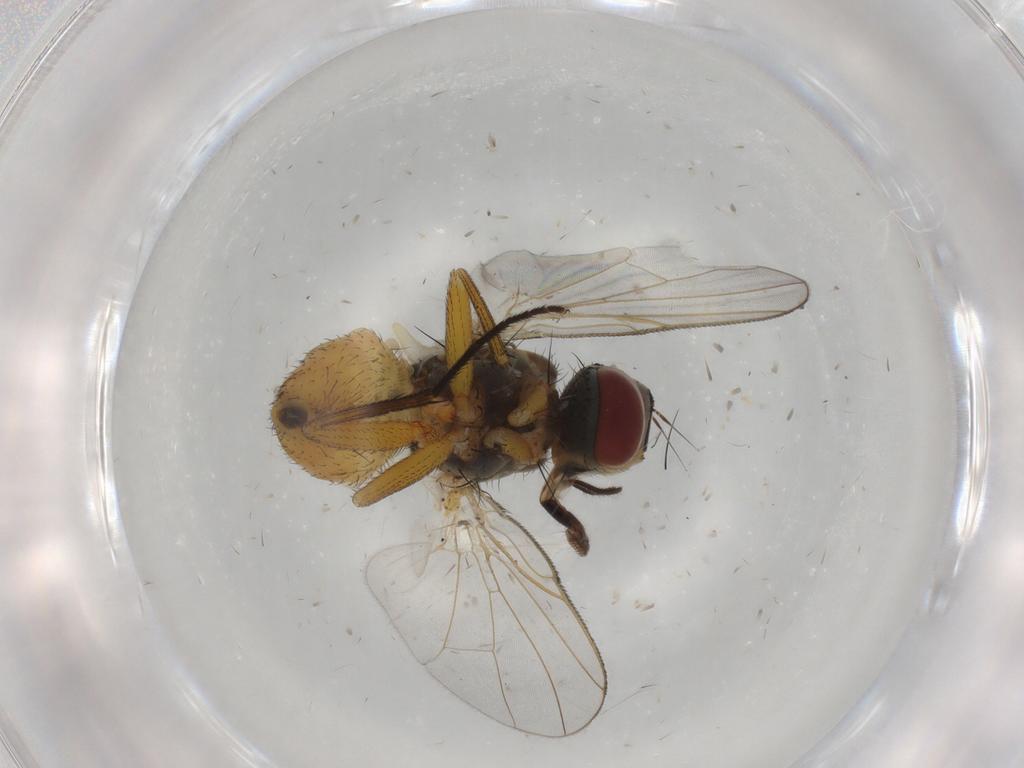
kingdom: Animalia
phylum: Arthropoda
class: Insecta
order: Diptera
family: Muscidae
